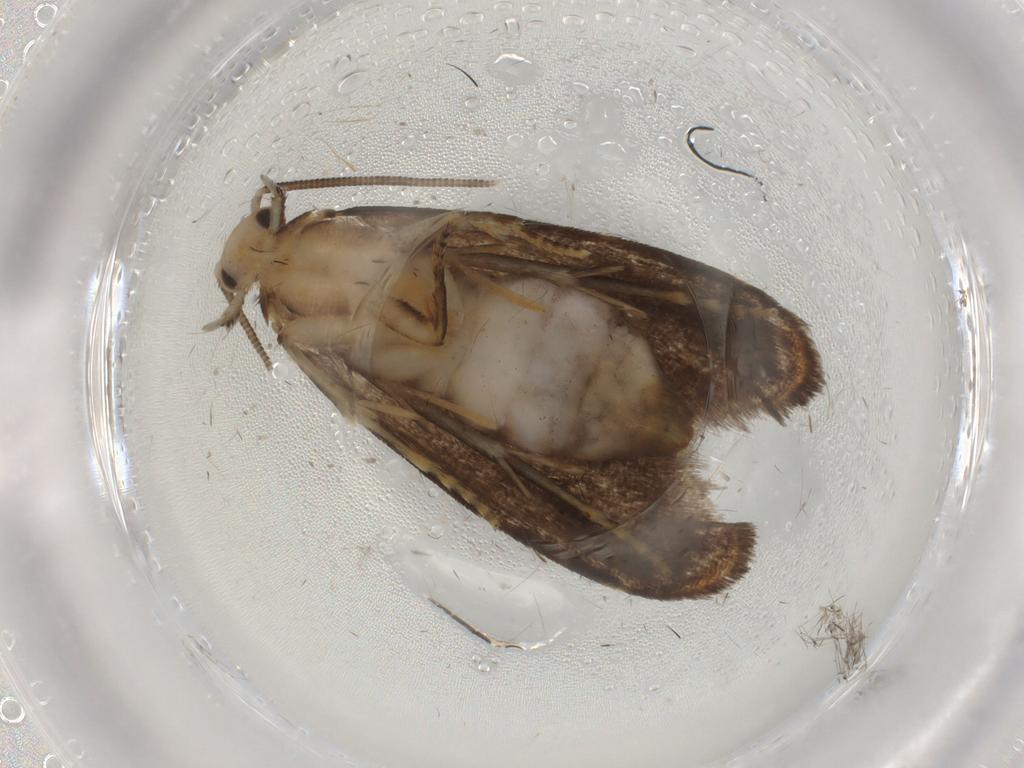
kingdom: Animalia
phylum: Arthropoda
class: Insecta
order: Lepidoptera
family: Dryadaulidae
